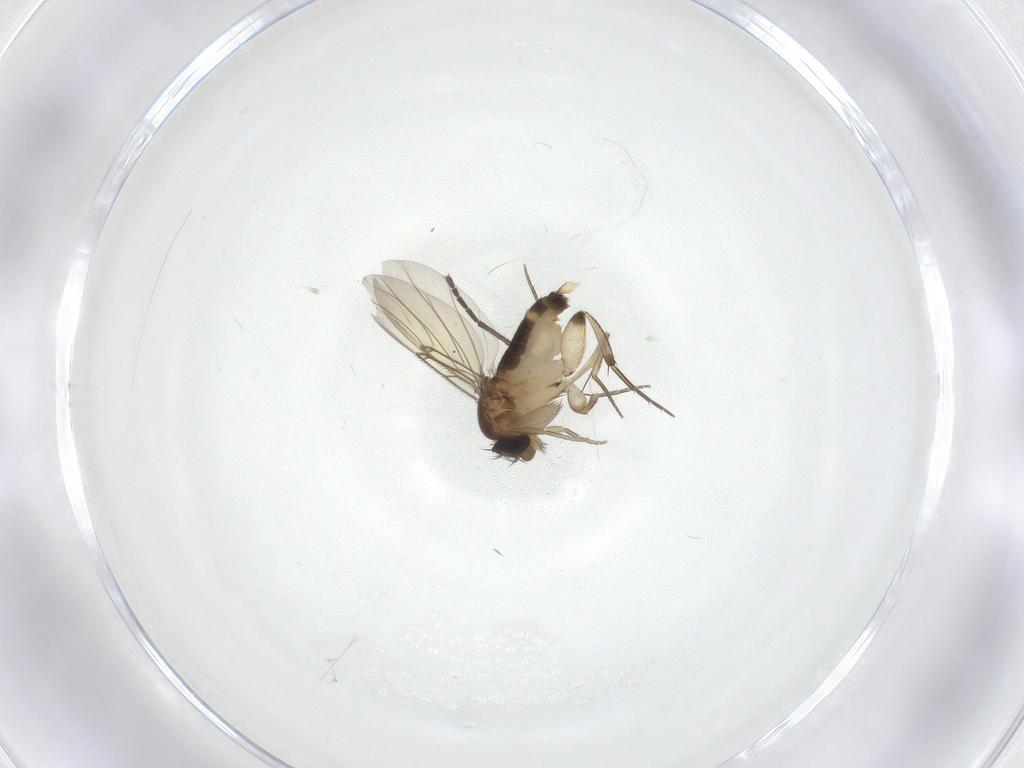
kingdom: Animalia
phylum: Arthropoda
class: Insecta
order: Diptera
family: Phoridae
